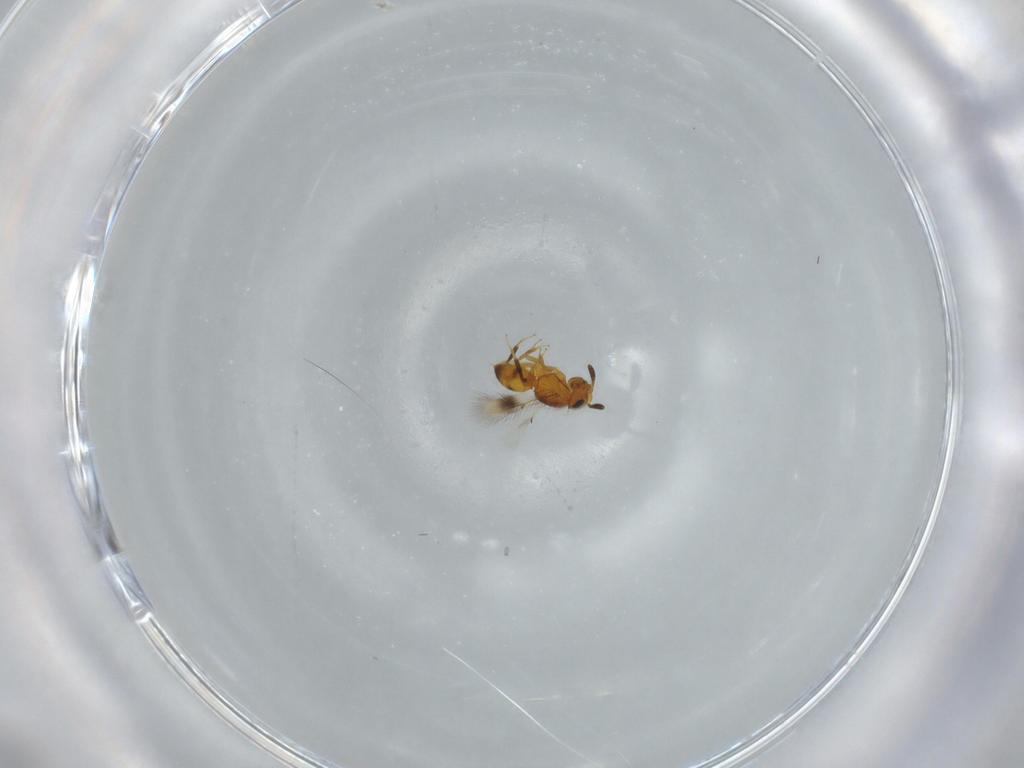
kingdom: Animalia
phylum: Arthropoda
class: Insecta
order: Hymenoptera
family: Scelionidae
